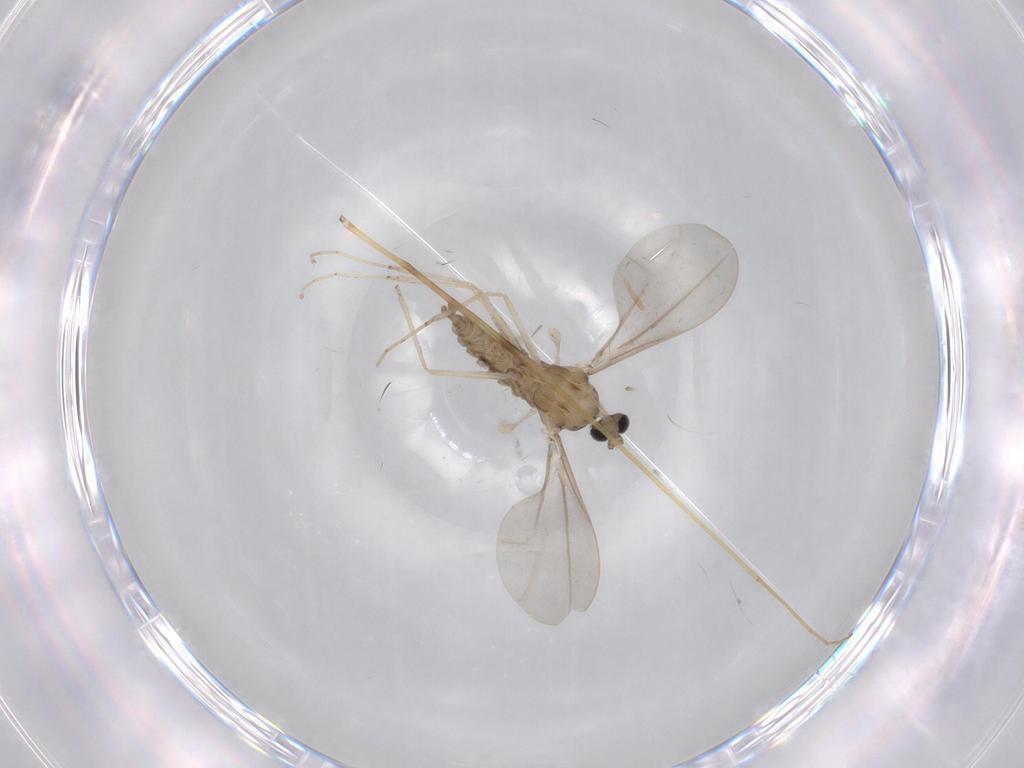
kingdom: Animalia
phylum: Arthropoda
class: Insecta
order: Diptera
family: Cecidomyiidae
